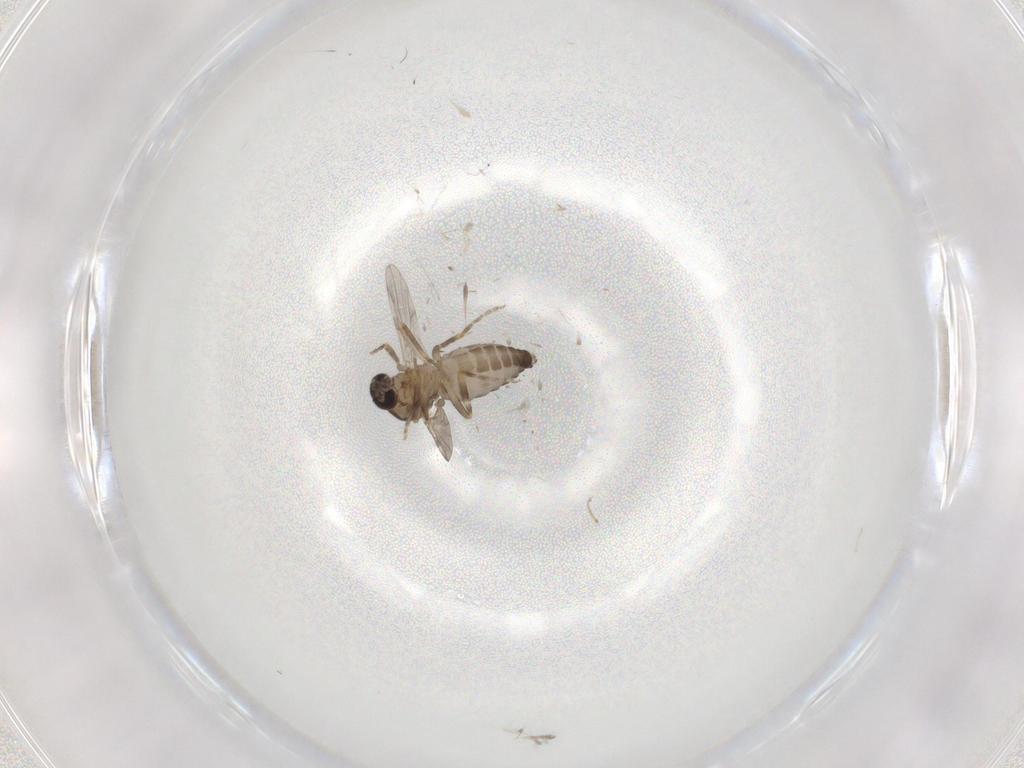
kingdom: Animalia
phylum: Arthropoda
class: Insecta
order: Diptera
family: Ceratopogonidae
